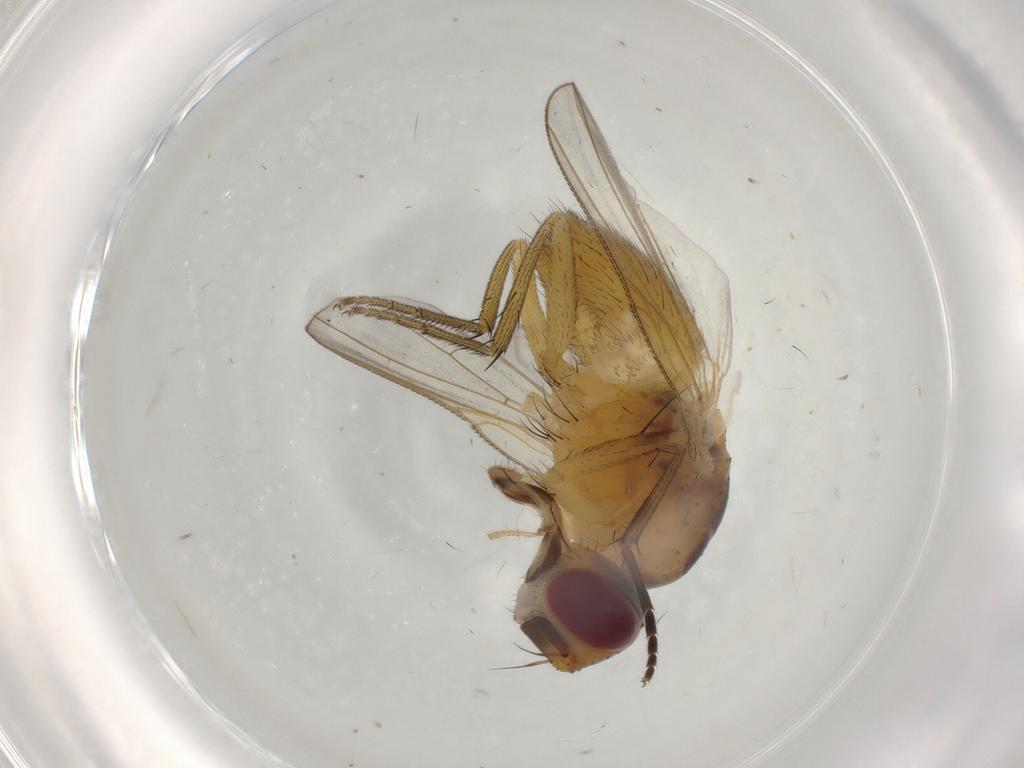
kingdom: Animalia
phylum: Arthropoda
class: Insecta
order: Diptera
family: Muscidae
